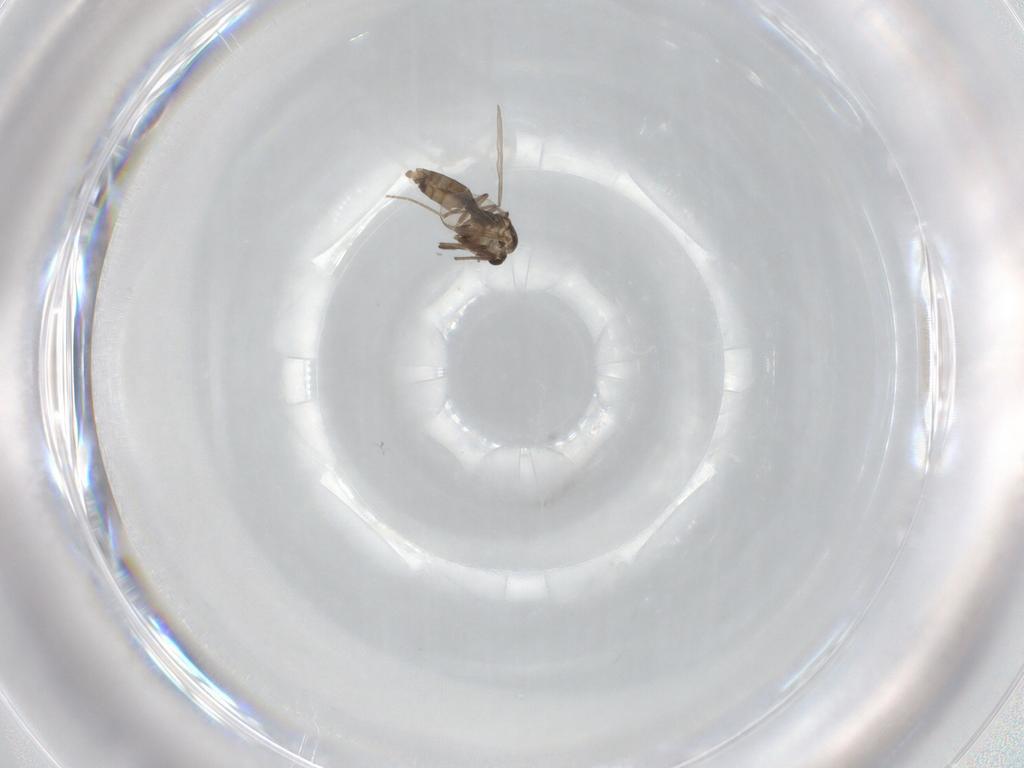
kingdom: Animalia
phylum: Arthropoda
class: Insecta
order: Diptera
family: Chironomidae
